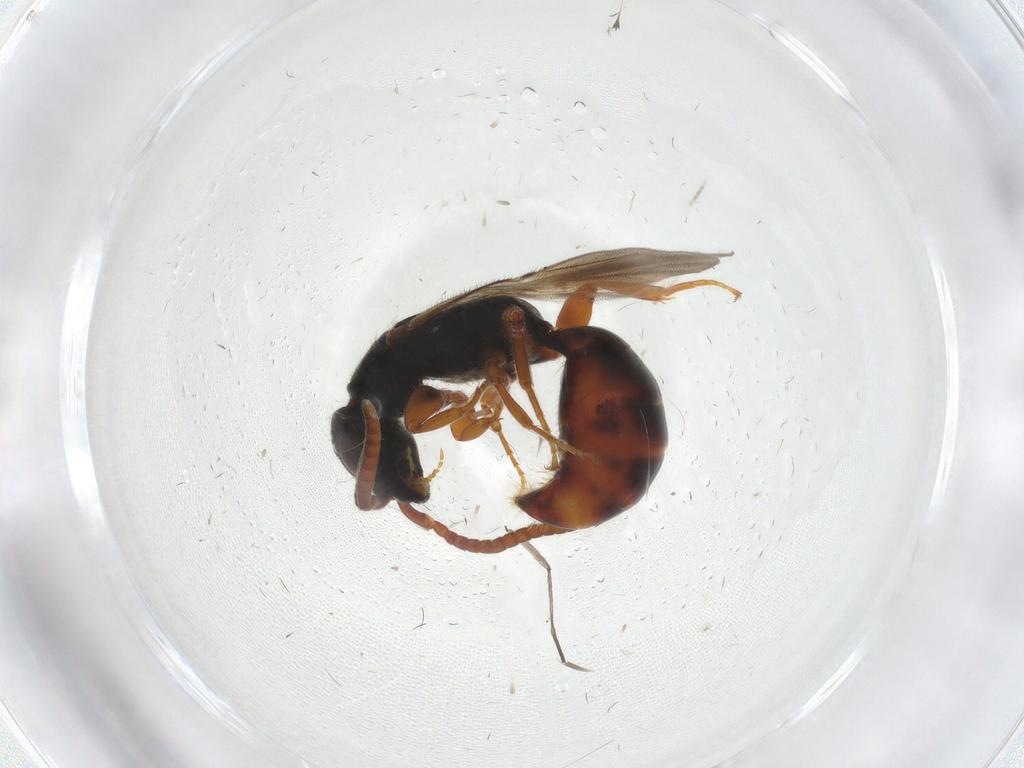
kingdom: Animalia
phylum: Arthropoda
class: Insecta
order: Hymenoptera
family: Bethylidae
